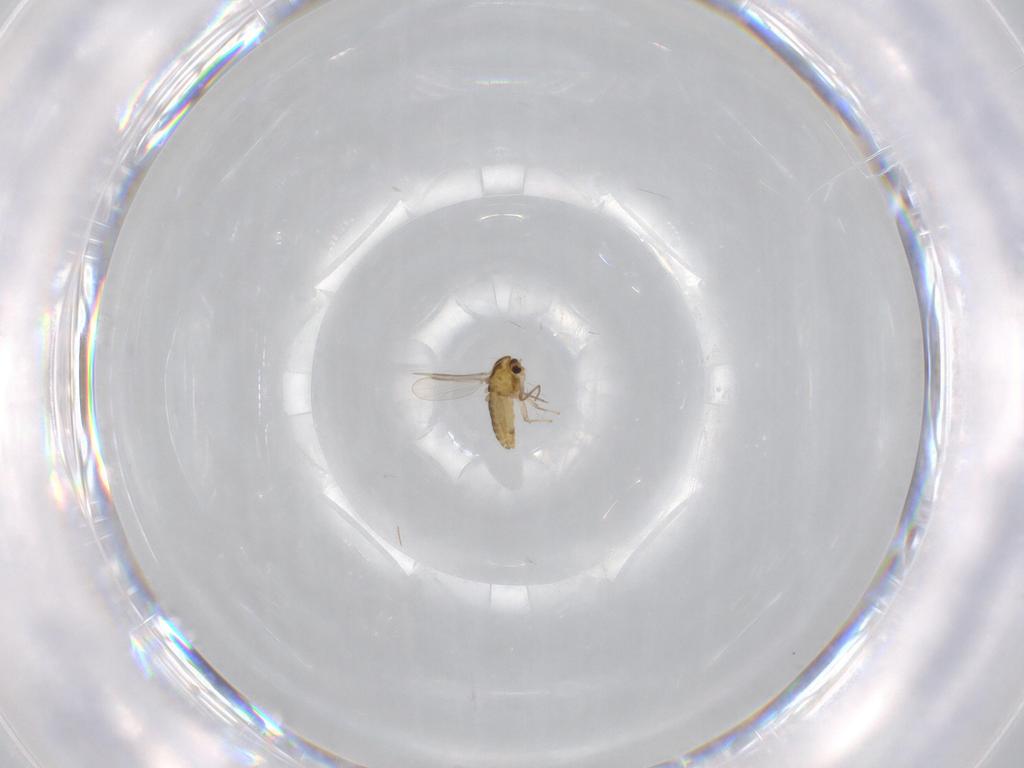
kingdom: Animalia
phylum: Arthropoda
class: Insecta
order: Diptera
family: Chironomidae
